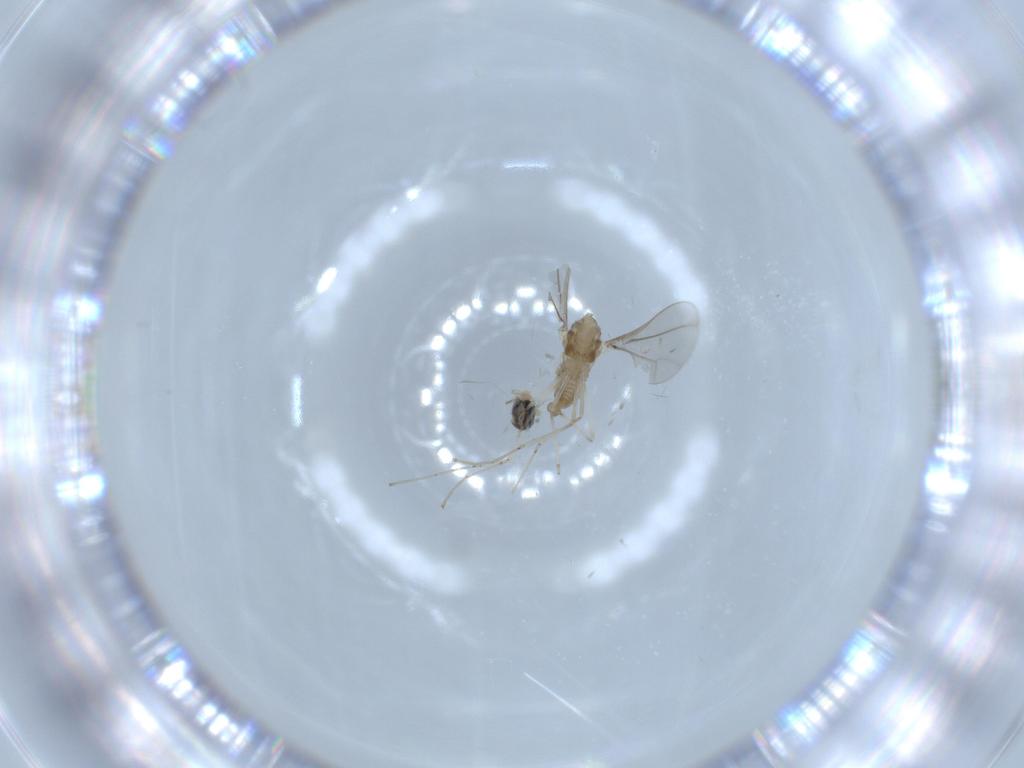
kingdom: Animalia
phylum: Arthropoda
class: Insecta
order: Diptera
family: Cecidomyiidae
